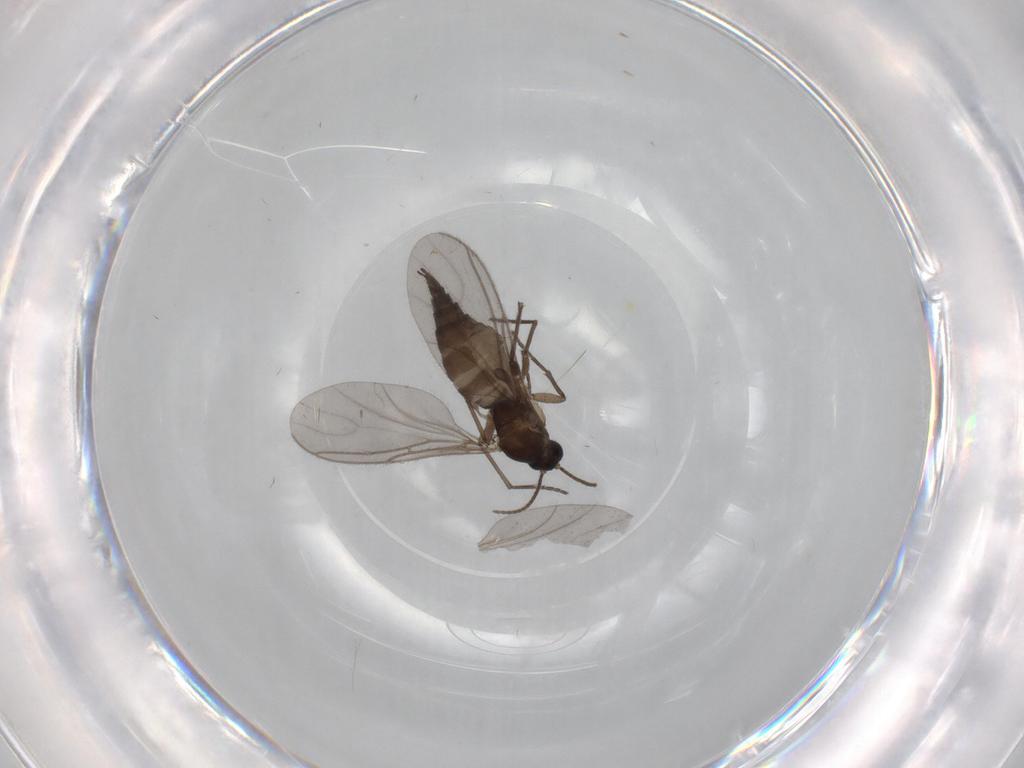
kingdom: Animalia
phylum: Arthropoda
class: Insecta
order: Diptera
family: Sciaridae
